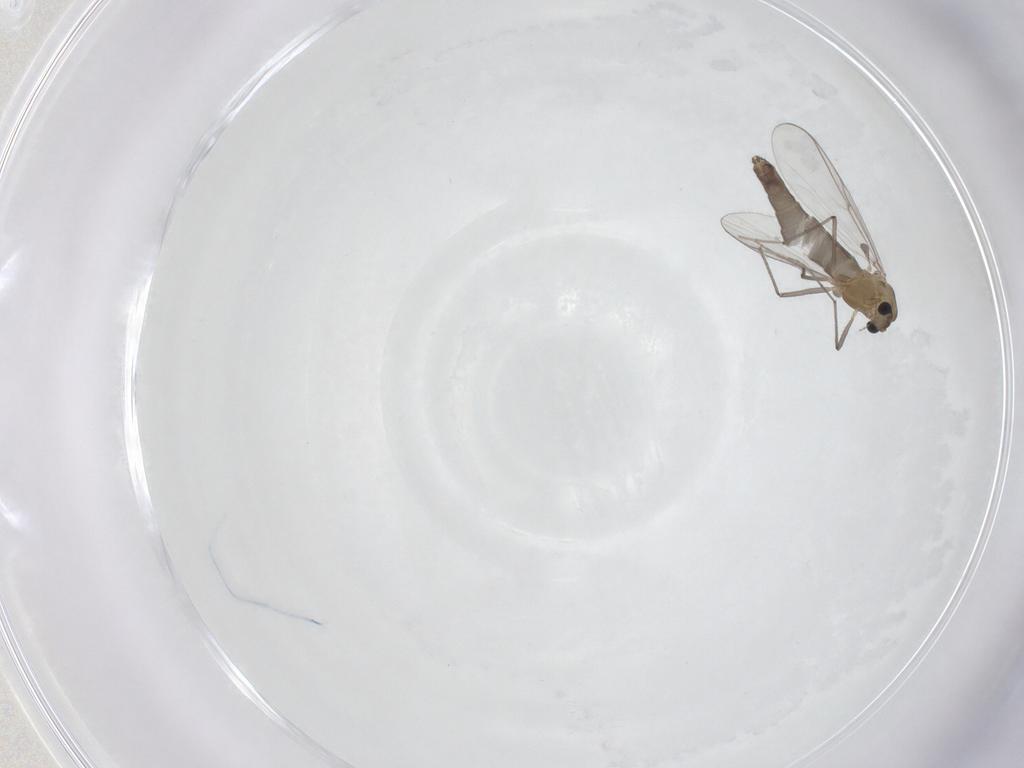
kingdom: Animalia
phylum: Arthropoda
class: Insecta
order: Diptera
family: Chironomidae
